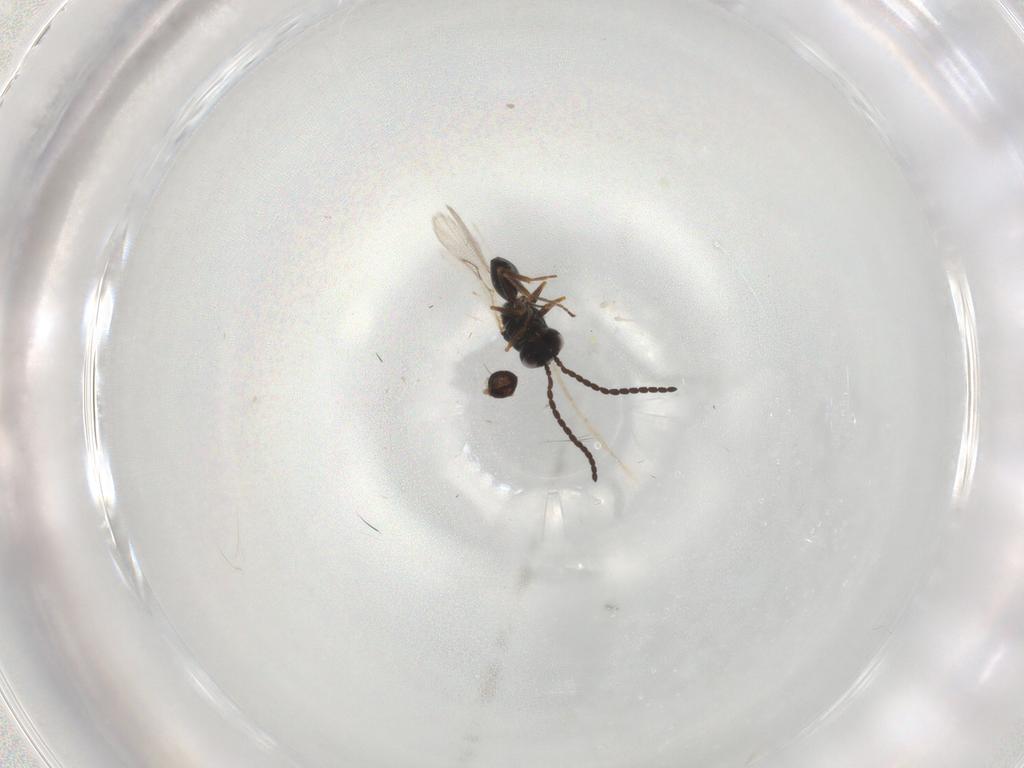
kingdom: Animalia
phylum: Arthropoda
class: Insecta
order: Hymenoptera
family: Figitidae
